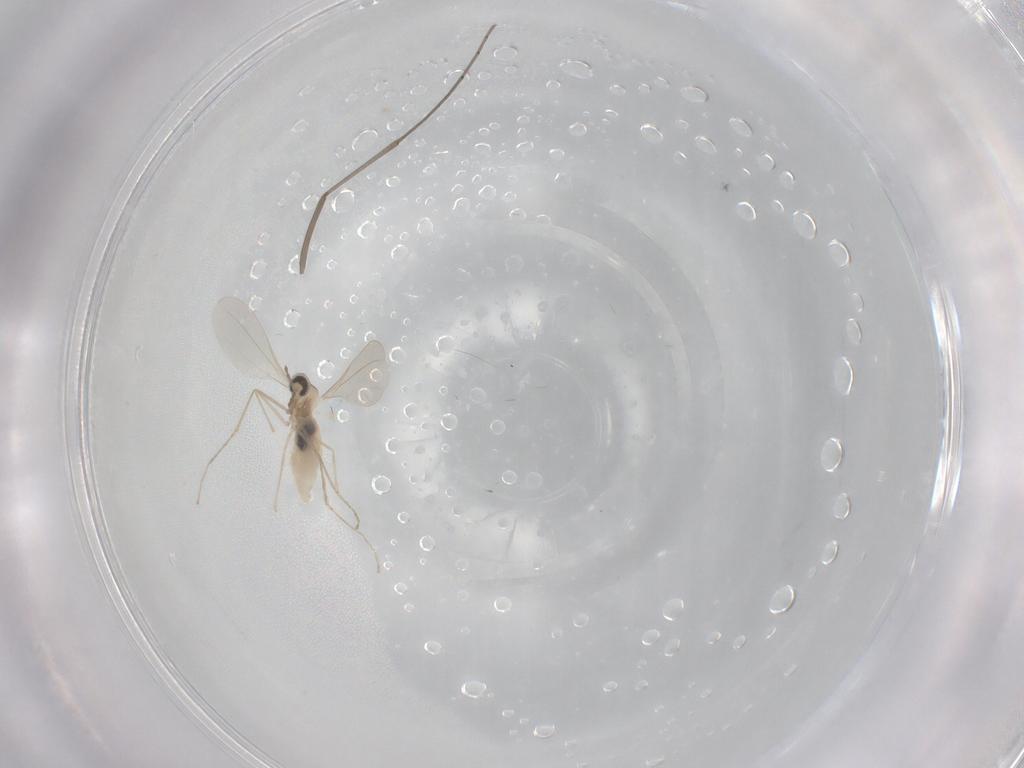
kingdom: Animalia
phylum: Arthropoda
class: Insecta
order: Diptera
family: Cecidomyiidae
